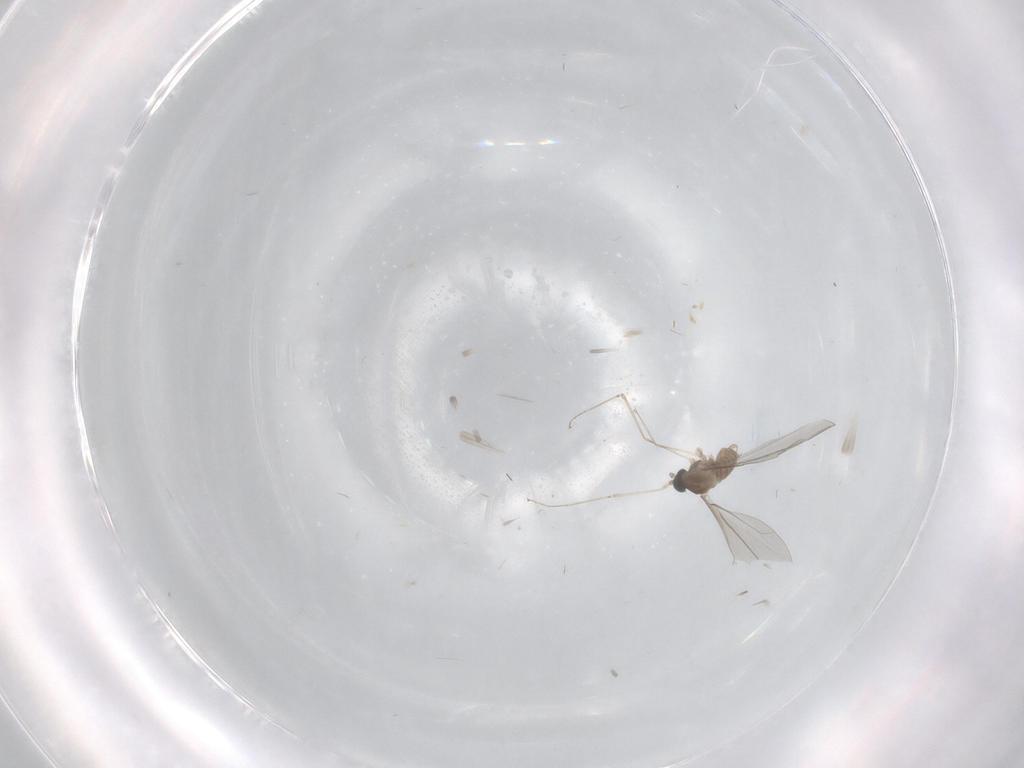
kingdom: Animalia
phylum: Arthropoda
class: Insecta
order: Diptera
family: Cecidomyiidae
